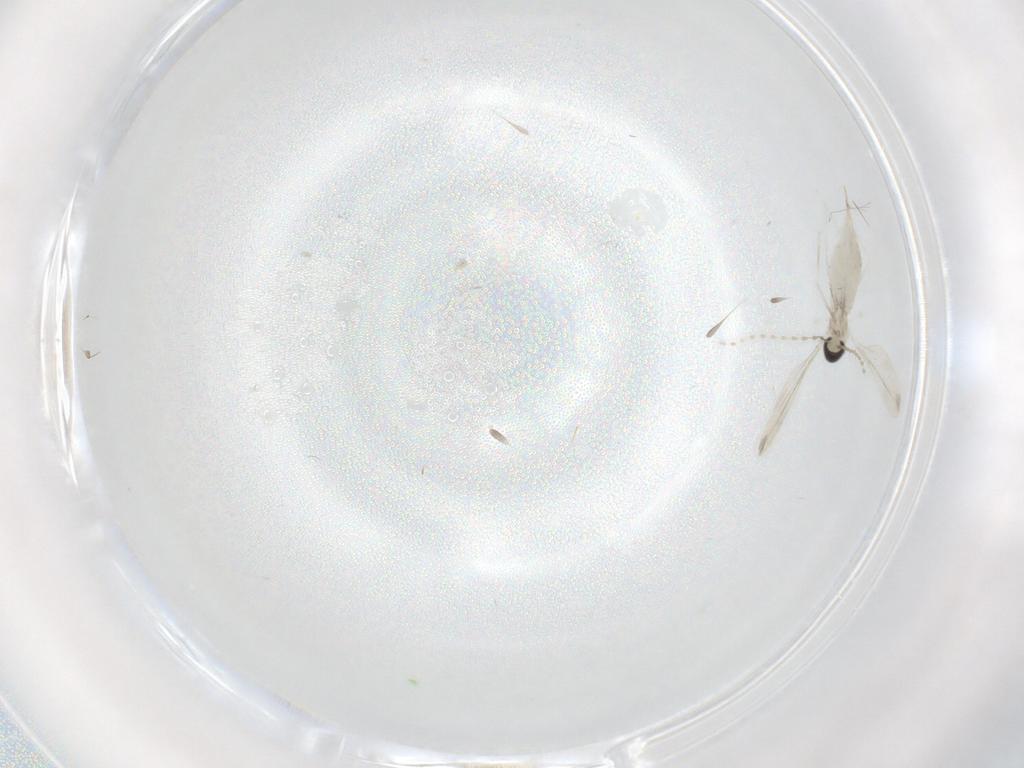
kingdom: Animalia
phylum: Arthropoda
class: Insecta
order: Diptera
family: Cecidomyiidae
